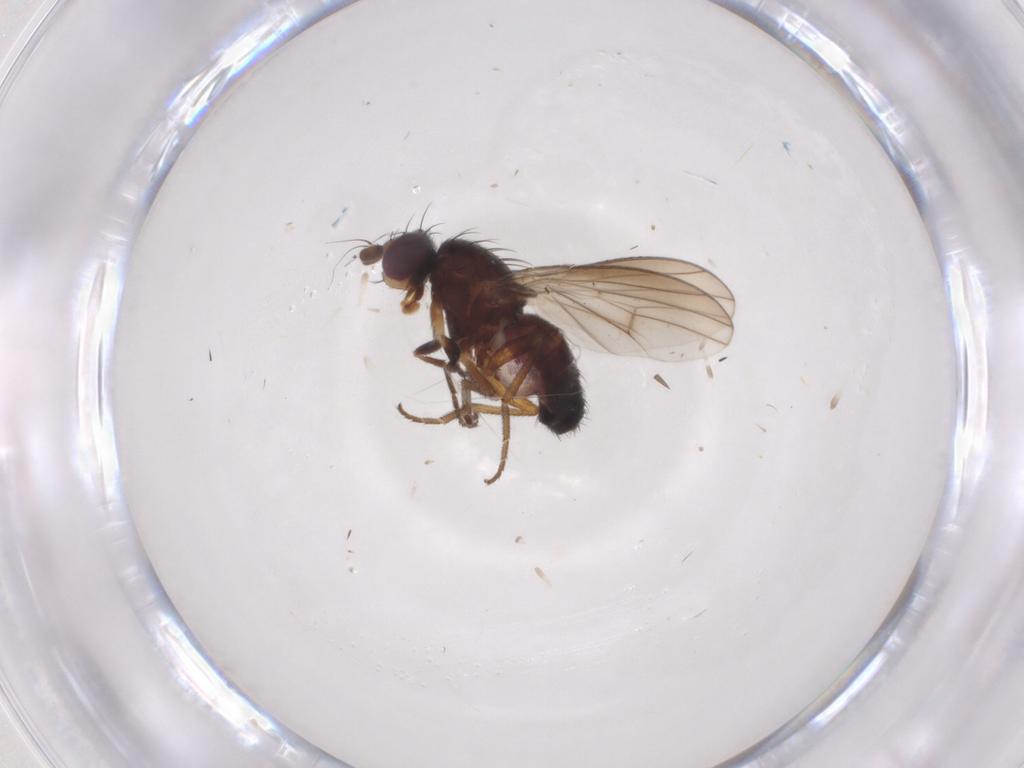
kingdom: Animalia
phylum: Arthropoda
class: Insecta
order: Diptera
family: Heleomyzidae
